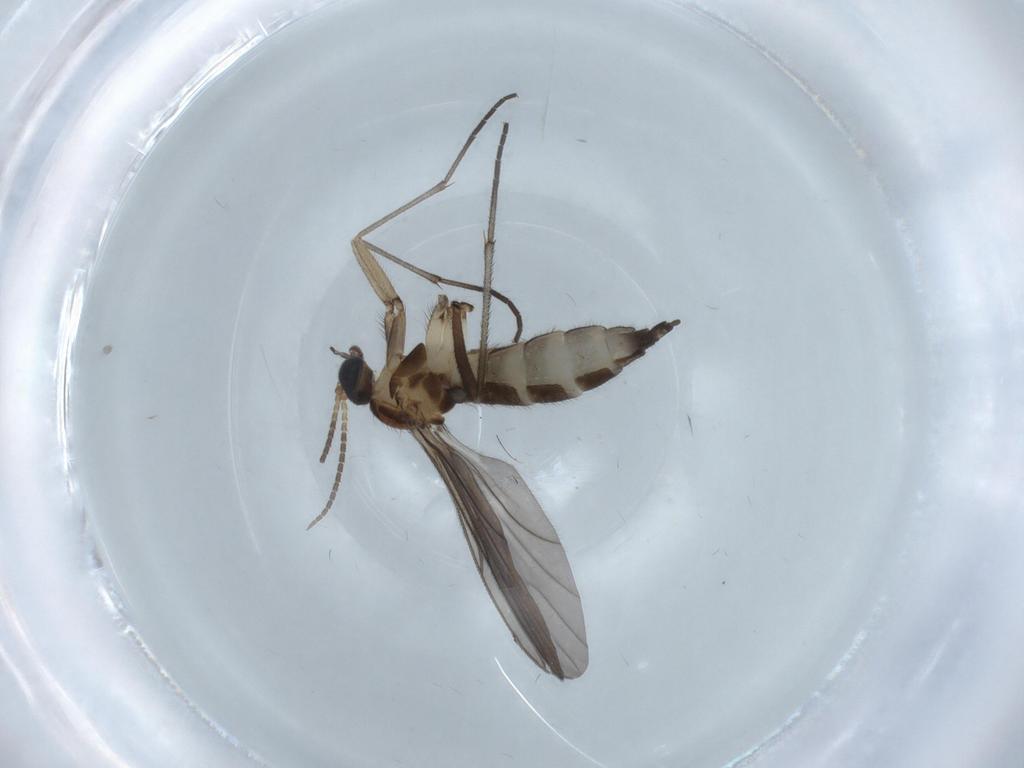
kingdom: Animalia
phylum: Arthropoda
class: Insecta
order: Diptera
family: Sciaridae
